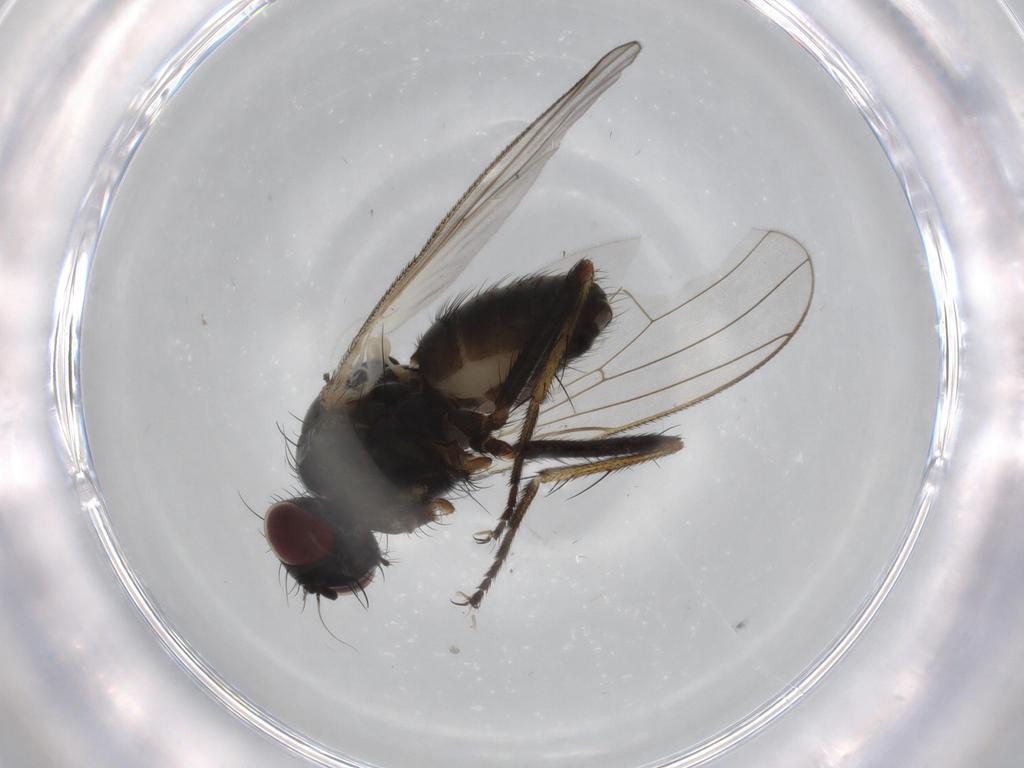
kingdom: Animalia
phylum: Arthropoda
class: Insecta
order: Diptera
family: Muscidae
